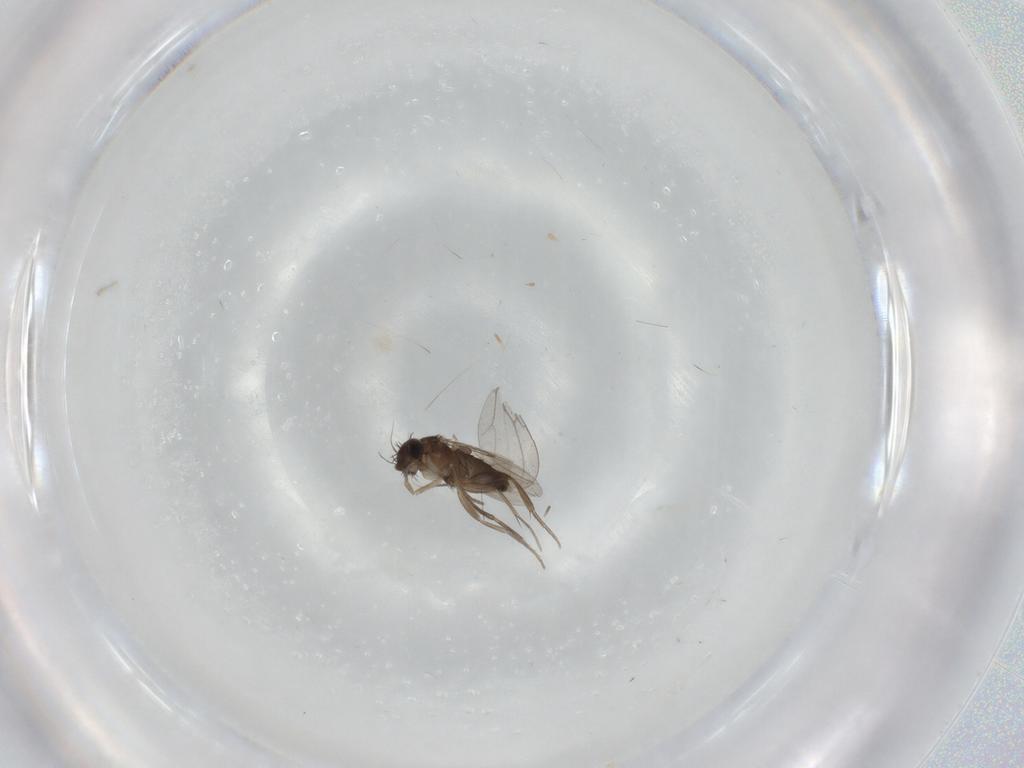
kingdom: Animalia
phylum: Arthropoda
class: Insecta
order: Diptera
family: Phoridae
